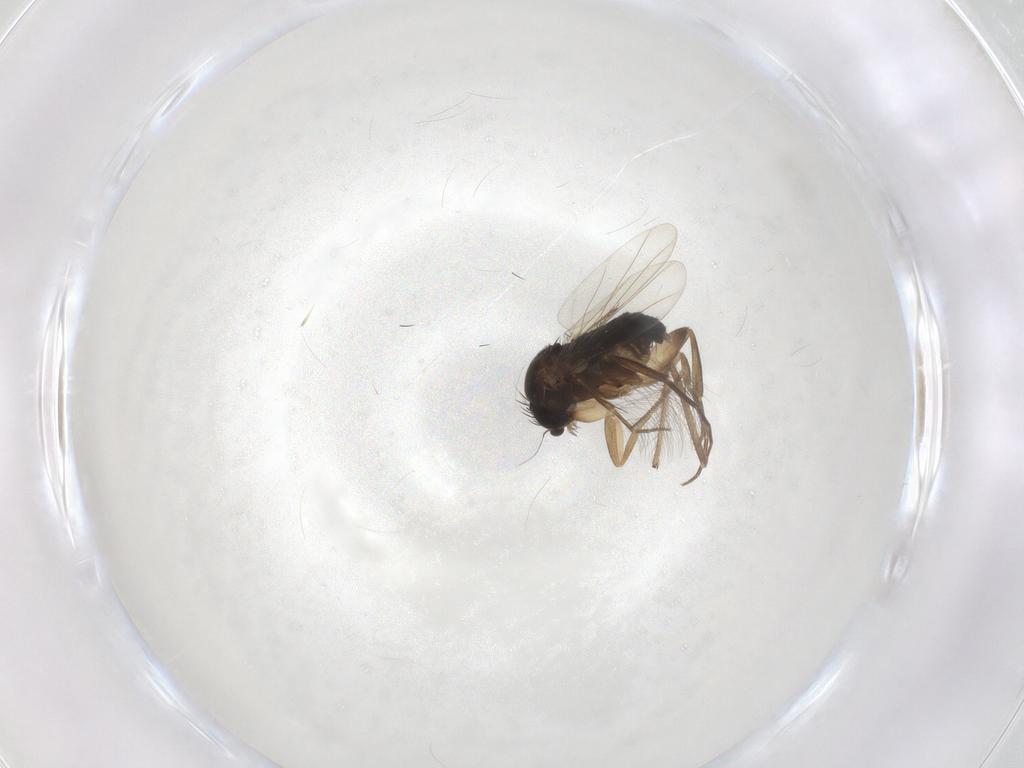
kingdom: Animalia
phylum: Arthropoda
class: Insecta
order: Diptera
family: Phoridae
